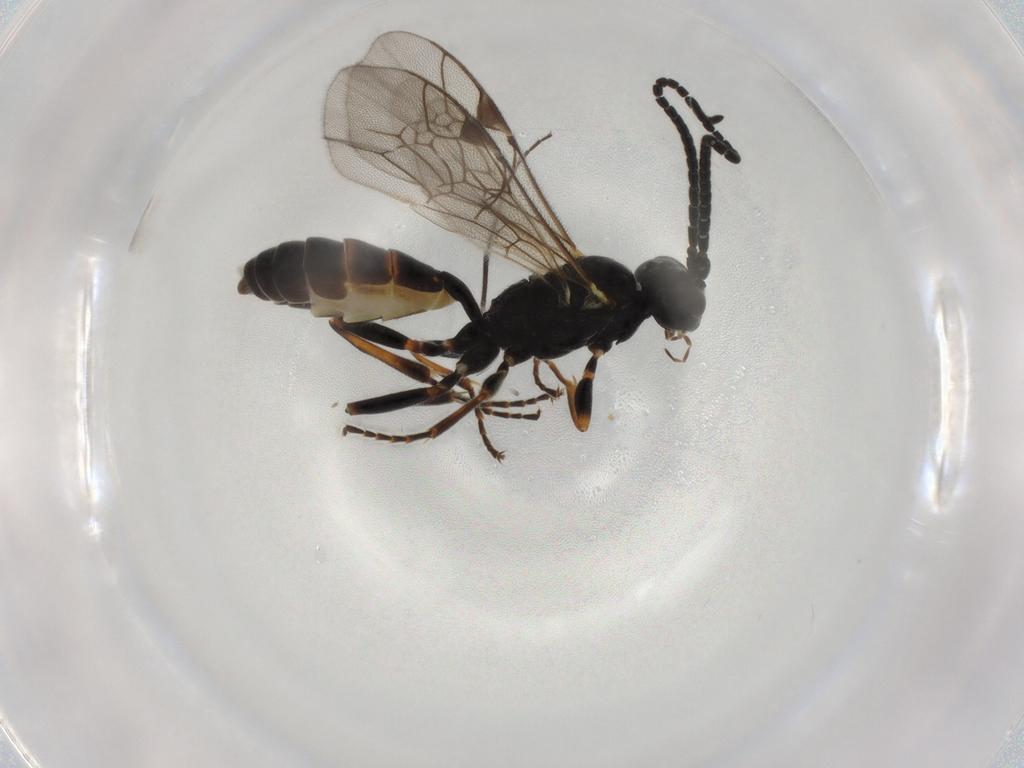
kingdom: Animalia
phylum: Arthropoda
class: Insecta
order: Hymenoptera
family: Ichneumonidae
